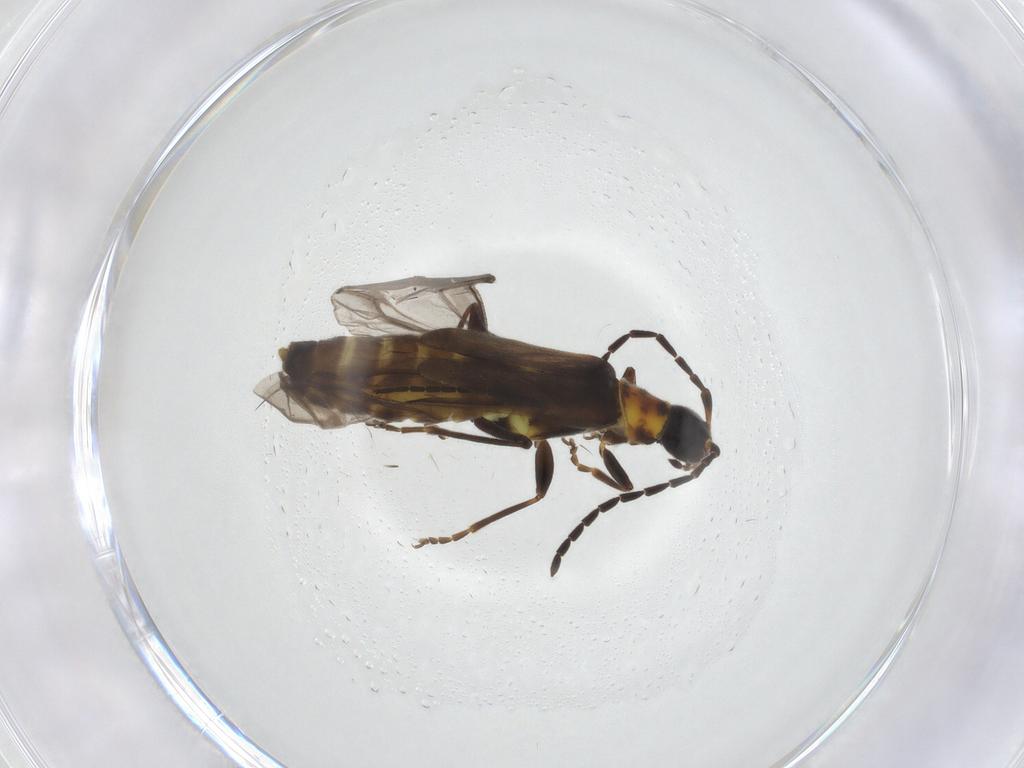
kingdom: Animalia
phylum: Arthropoda
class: Insecta
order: Coleoptera
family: Cantharidae
